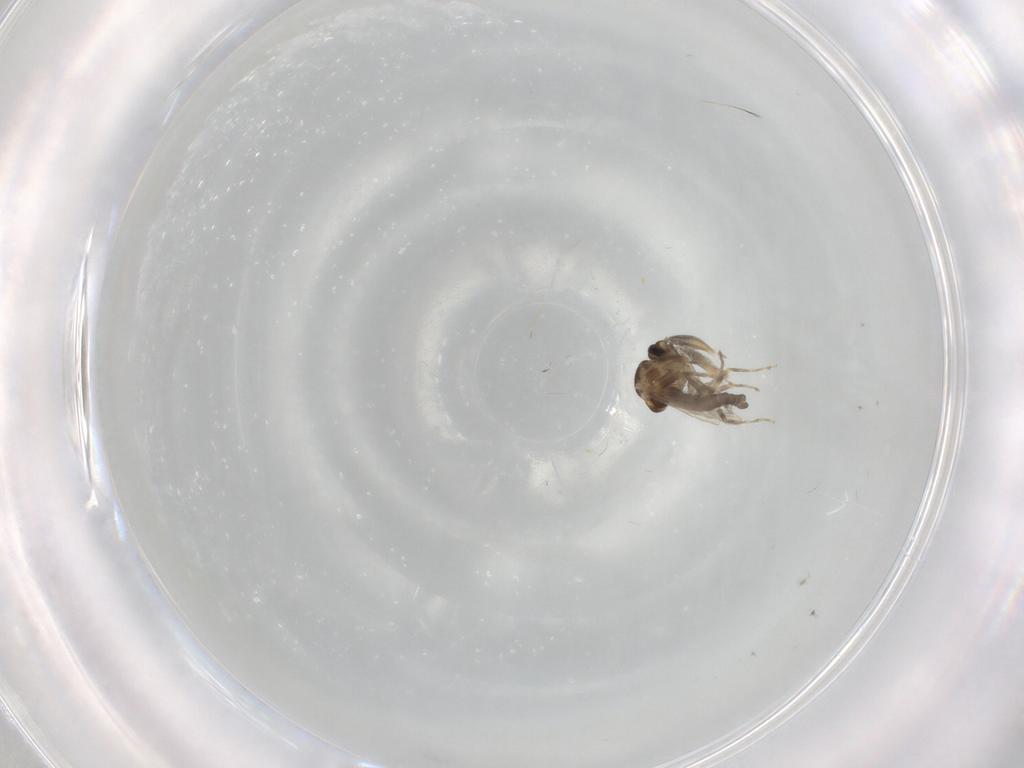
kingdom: Animalia
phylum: Arthropoda
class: Insecta
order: Diptera
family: Ceratopogonidae
